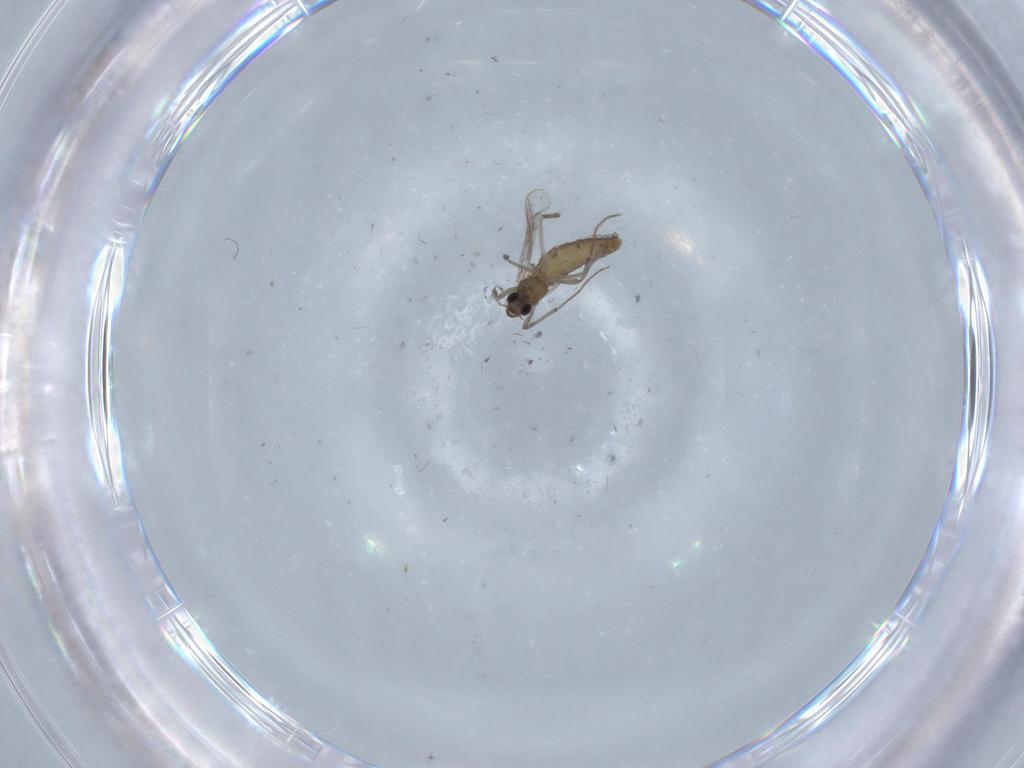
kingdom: Animalia
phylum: Arthropoda
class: Insecta
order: Diptera
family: Chironomidae
